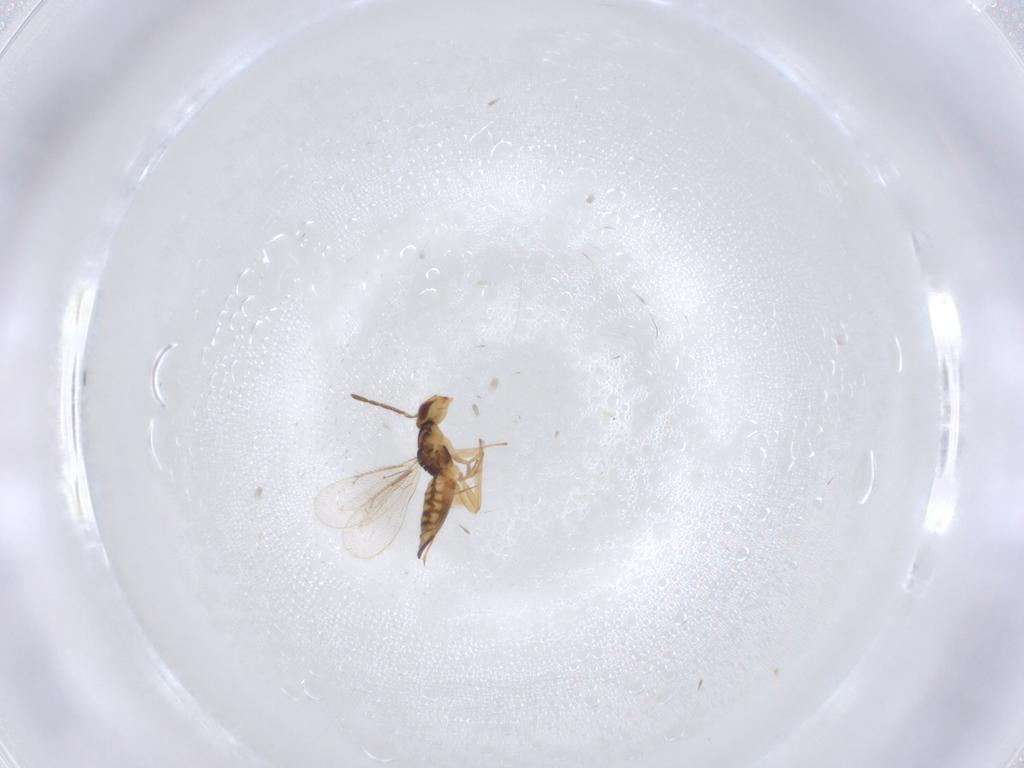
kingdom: Animalia
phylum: Arthropoda
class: Insecta
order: Hymenoptera
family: Eulophidae
